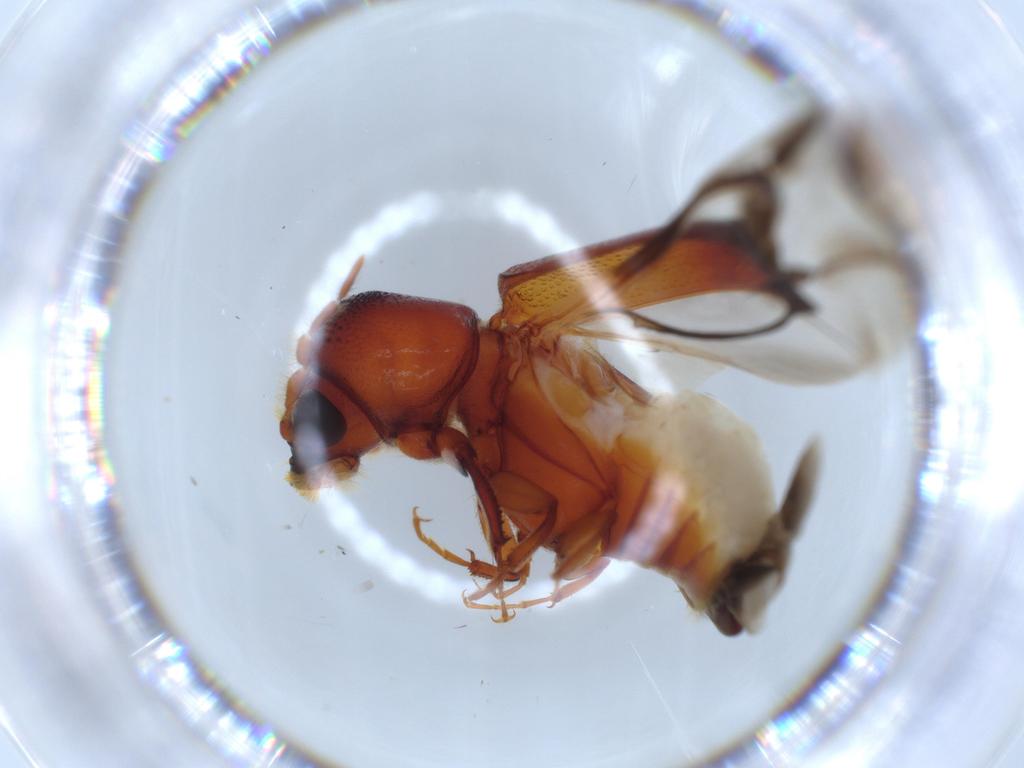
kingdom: Animalia
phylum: Arthropoda
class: Insecta
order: Coleoptera
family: Bostrichidae
